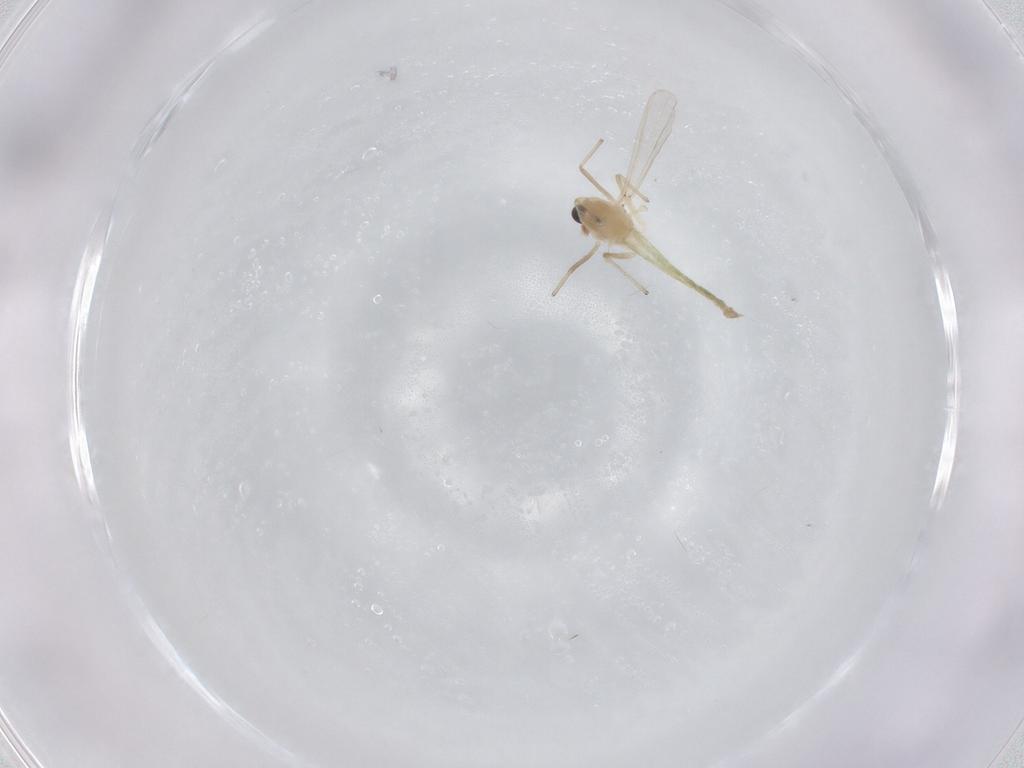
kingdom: Animalia
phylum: Arthropoda
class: Insecta
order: Diptera
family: Chironomidae
